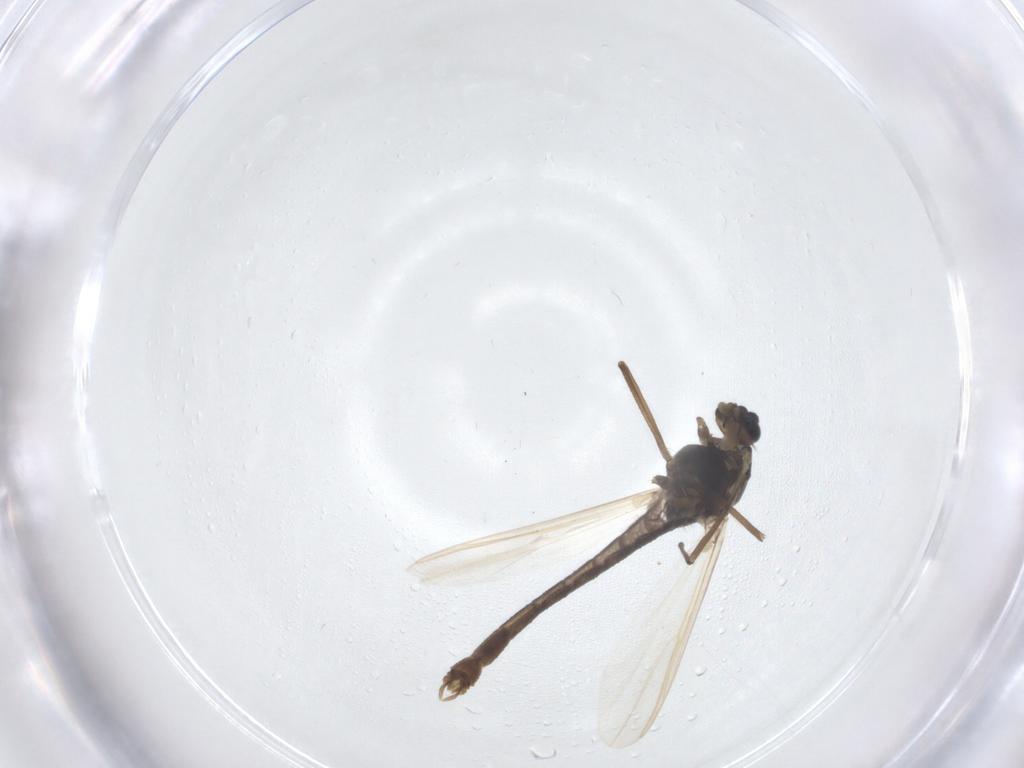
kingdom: Animalia
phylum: Arthropoda
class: Insecta
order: Diptera
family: Chironomidae
